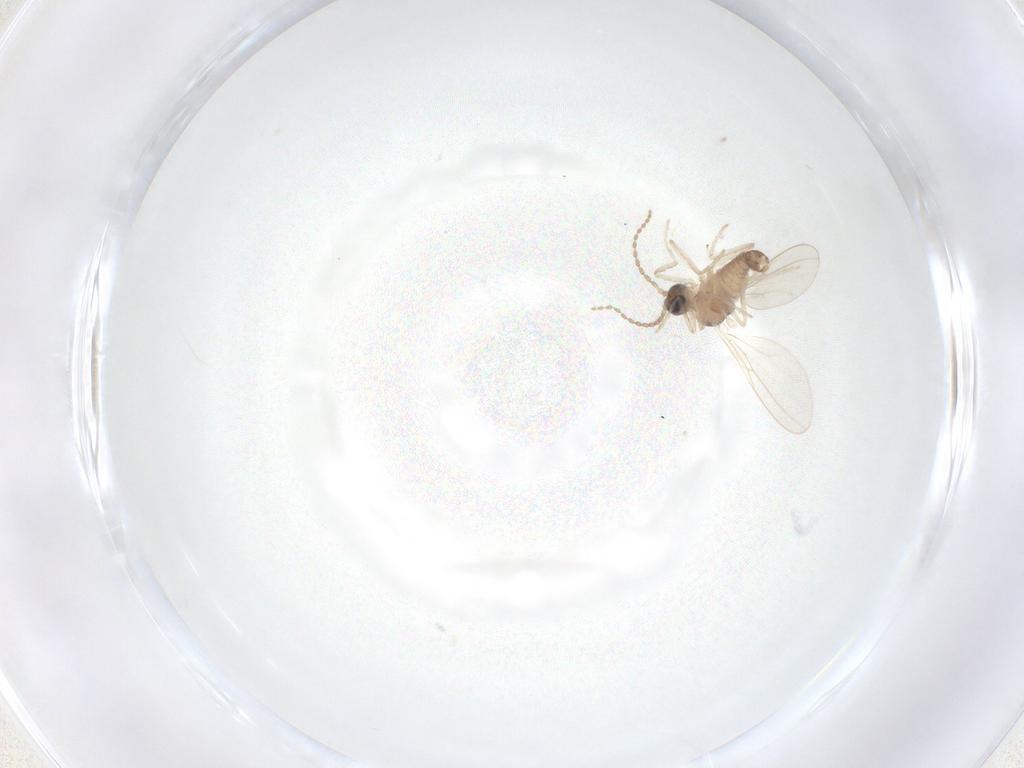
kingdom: Animalia
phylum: Arthropoda
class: Insecta
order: Diptera
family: Cecidomyiidae
